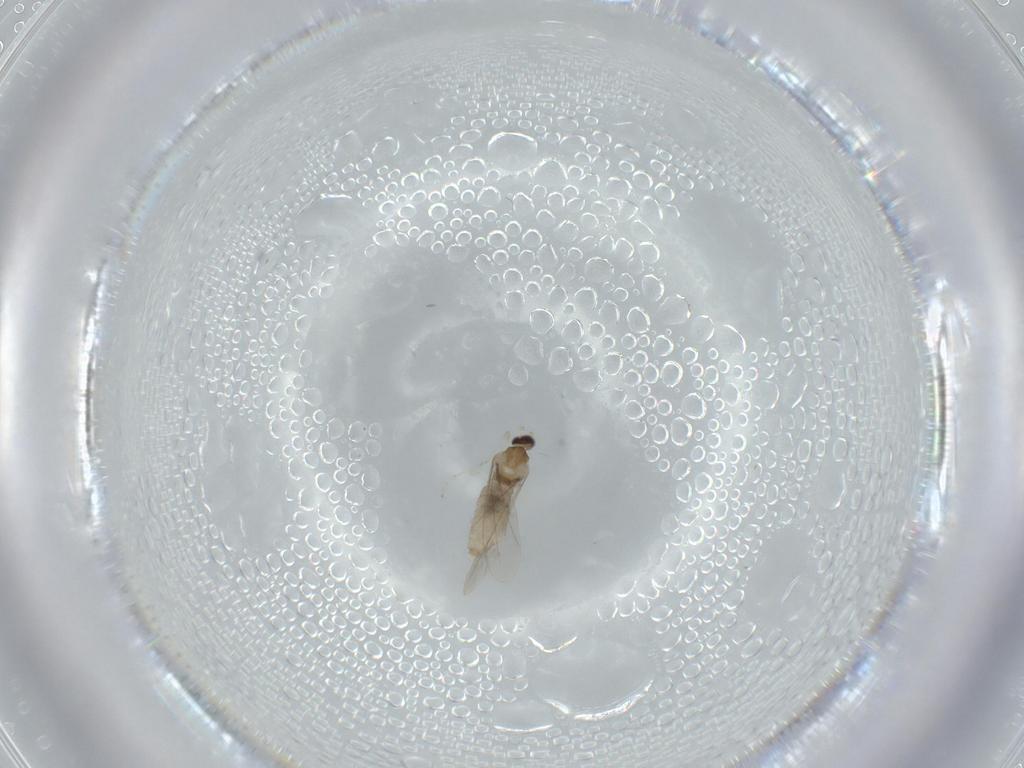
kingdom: Animalia
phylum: Arthropoda
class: Insecta
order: Diptera
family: Cecidomyiidae
